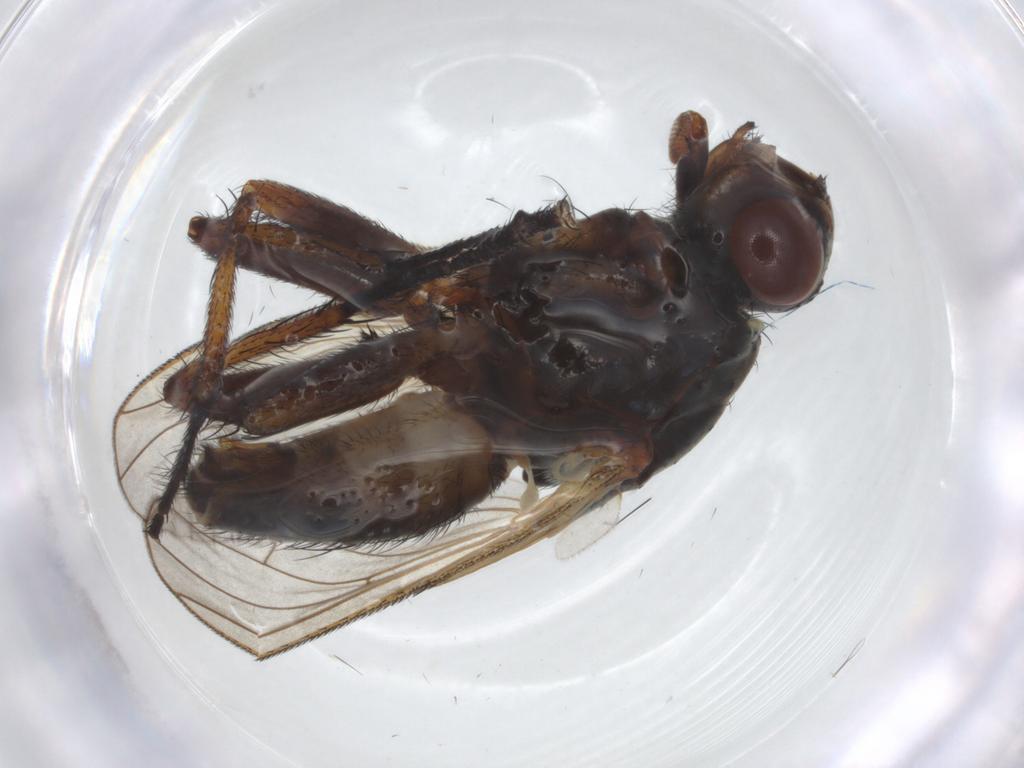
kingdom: Animalia
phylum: Arthropoda
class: Insecta
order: Diptera
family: Anthomyiidae
